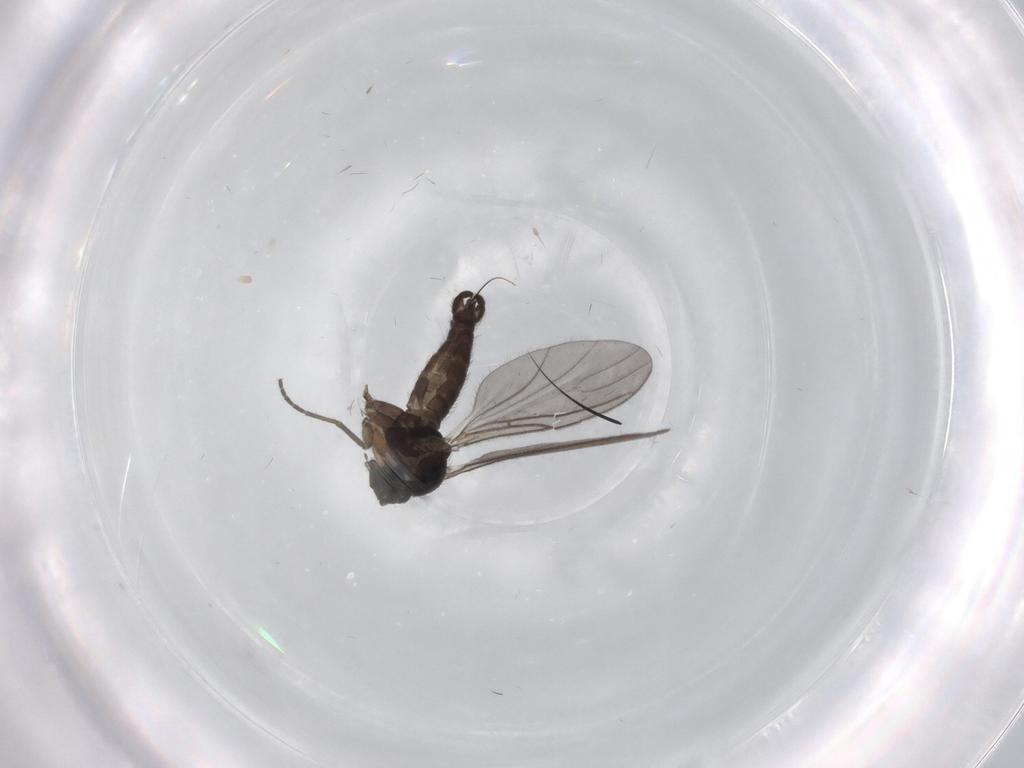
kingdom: Animalia
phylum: Arthropoda
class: Insecta
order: Diptera
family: Sciaridae
